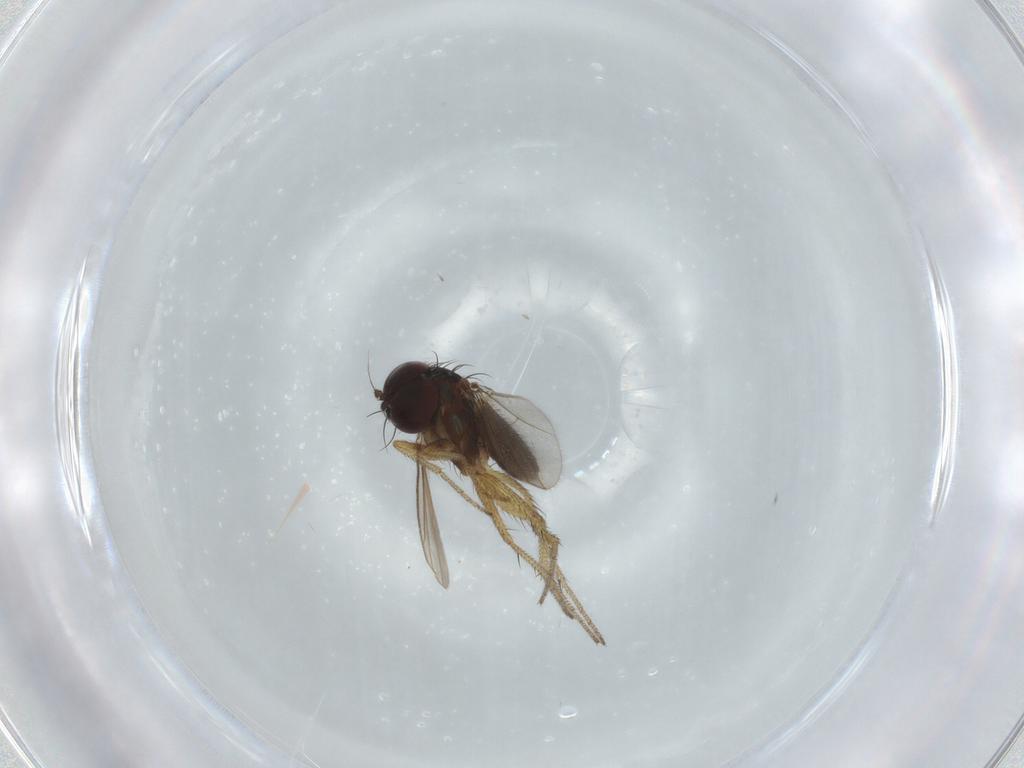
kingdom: Animalia
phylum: Arthropoda
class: Insecta
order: Diptera
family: Dolichopodidae
